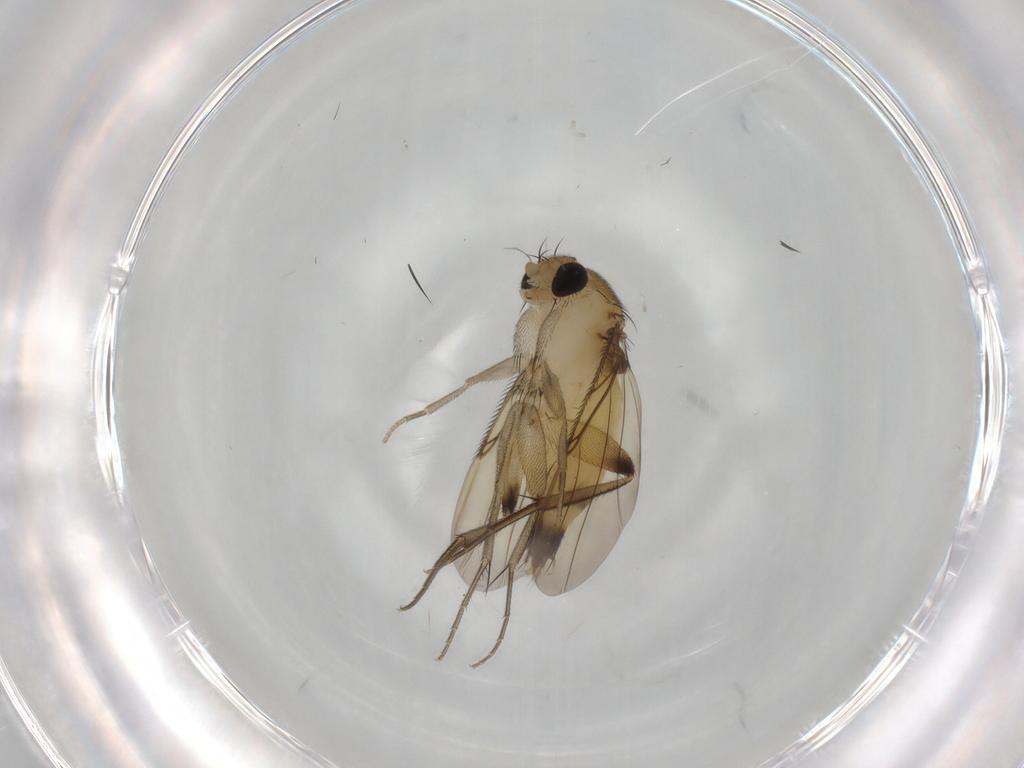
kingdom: Animalia
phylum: Arthropoda
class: Insecta
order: Diptera
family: Phoridae
